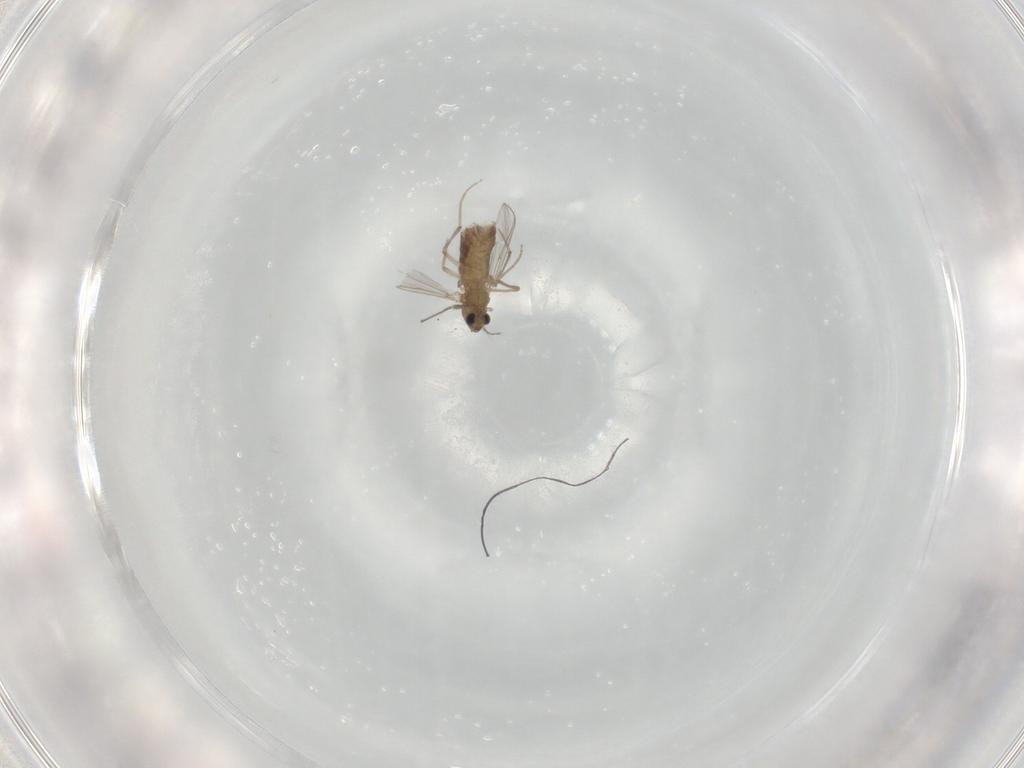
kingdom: Animalia
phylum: Arthropoda
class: Insecta
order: Diptera
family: Chironomidae
